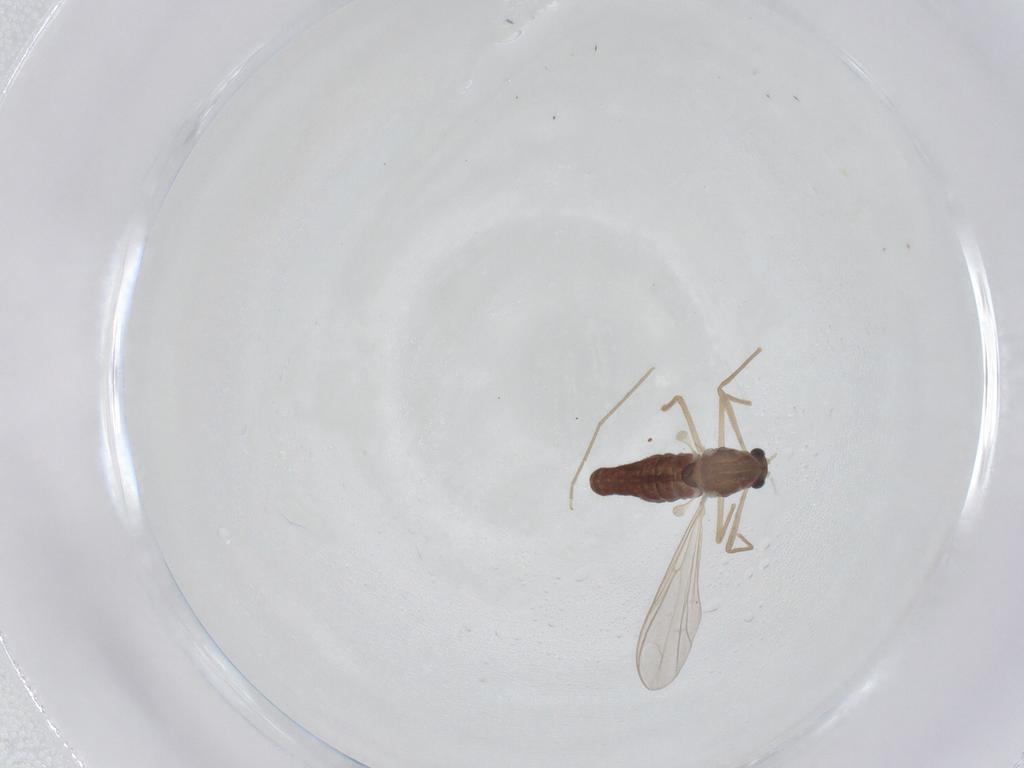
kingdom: Animalia
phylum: Arthropoda
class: Insecta
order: Diptera
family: Chironomidae
